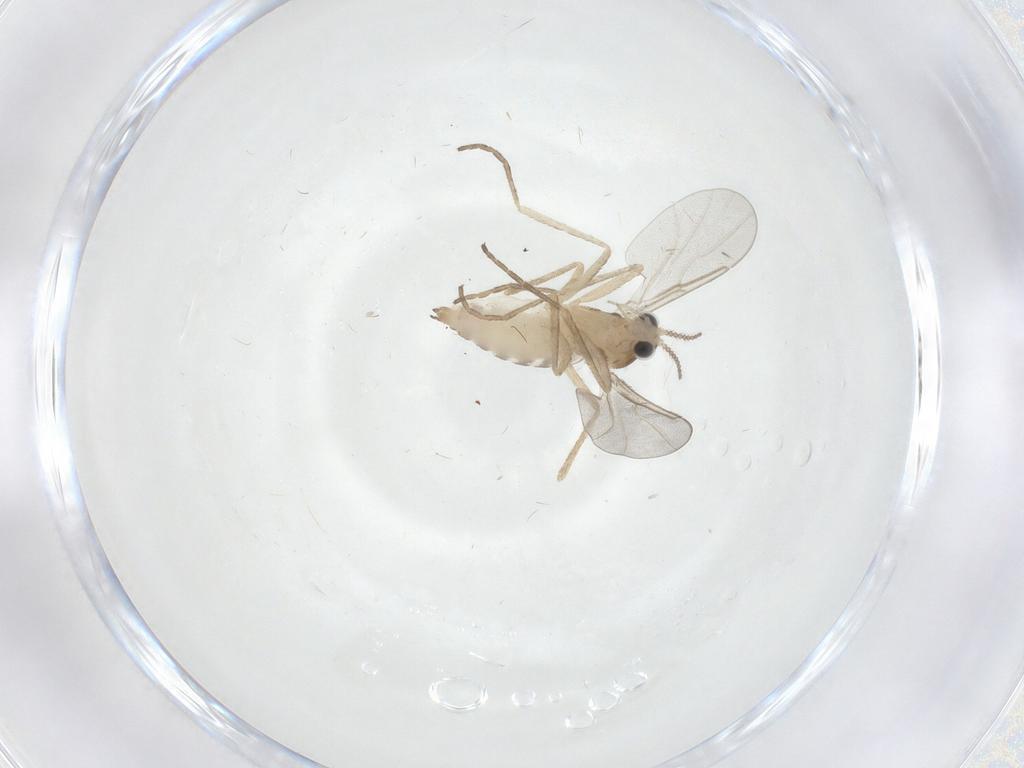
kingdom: Animalia
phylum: Arthropoda
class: Insecta
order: Diptera
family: Cecidomyiidae
